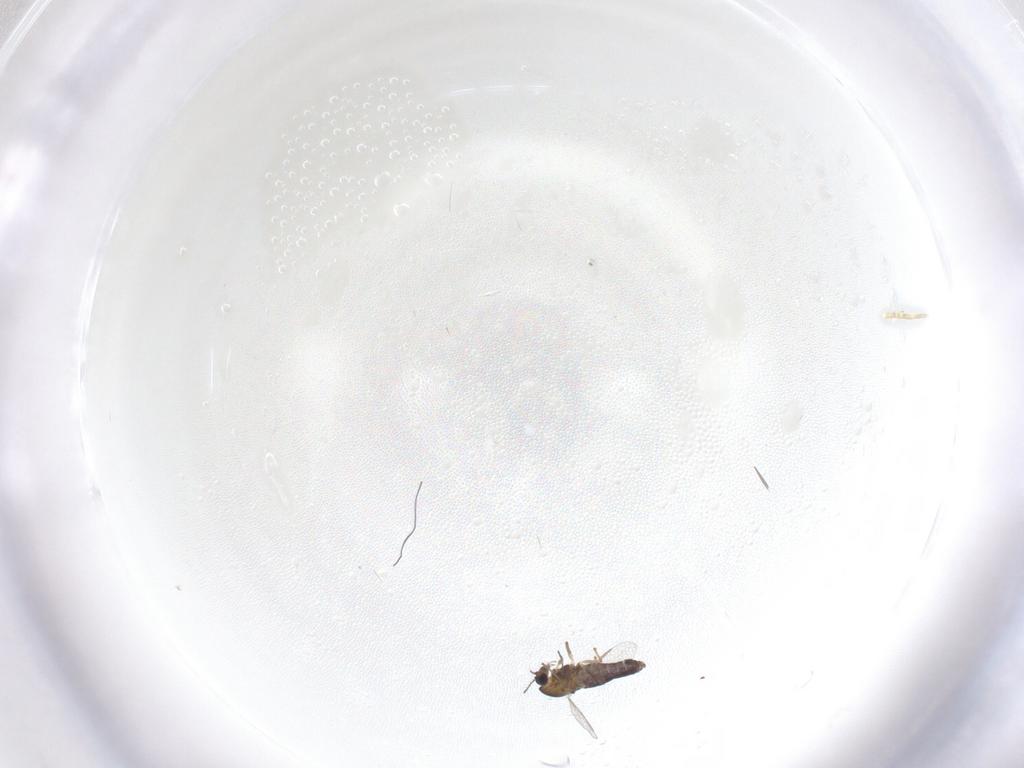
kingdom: Animalia
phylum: Arthropoda
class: Insecta
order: Diptera
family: Chironomidae
